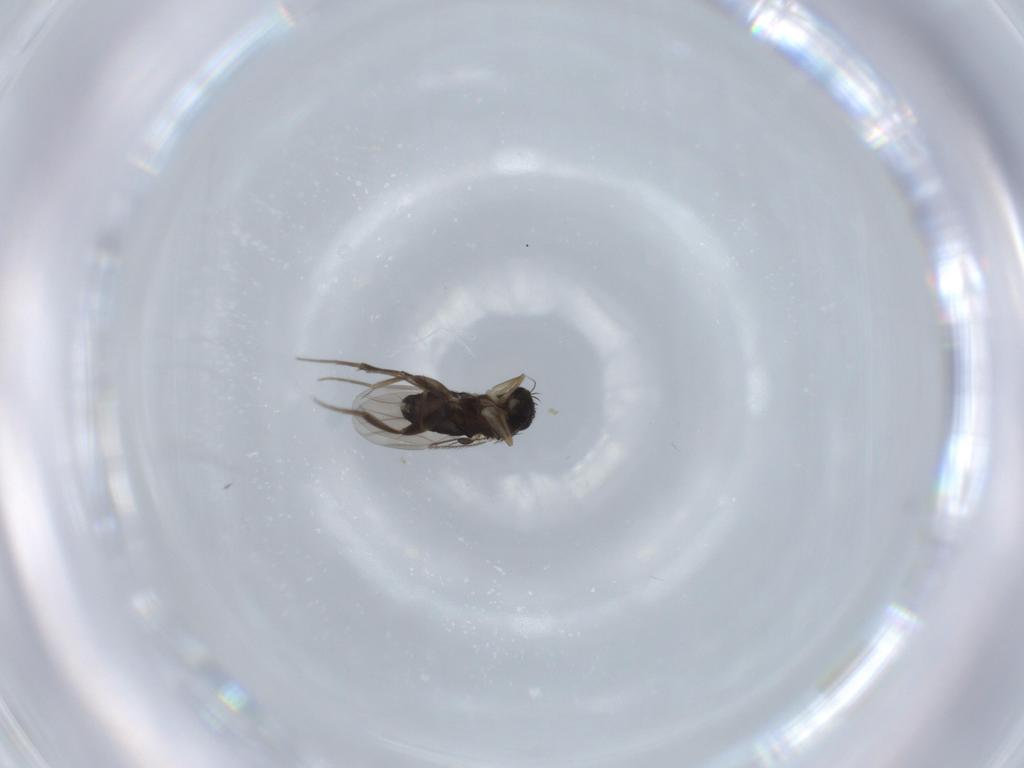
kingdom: Animalia
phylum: Arthropoda
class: Insecta
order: Diptera
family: Phoridae
